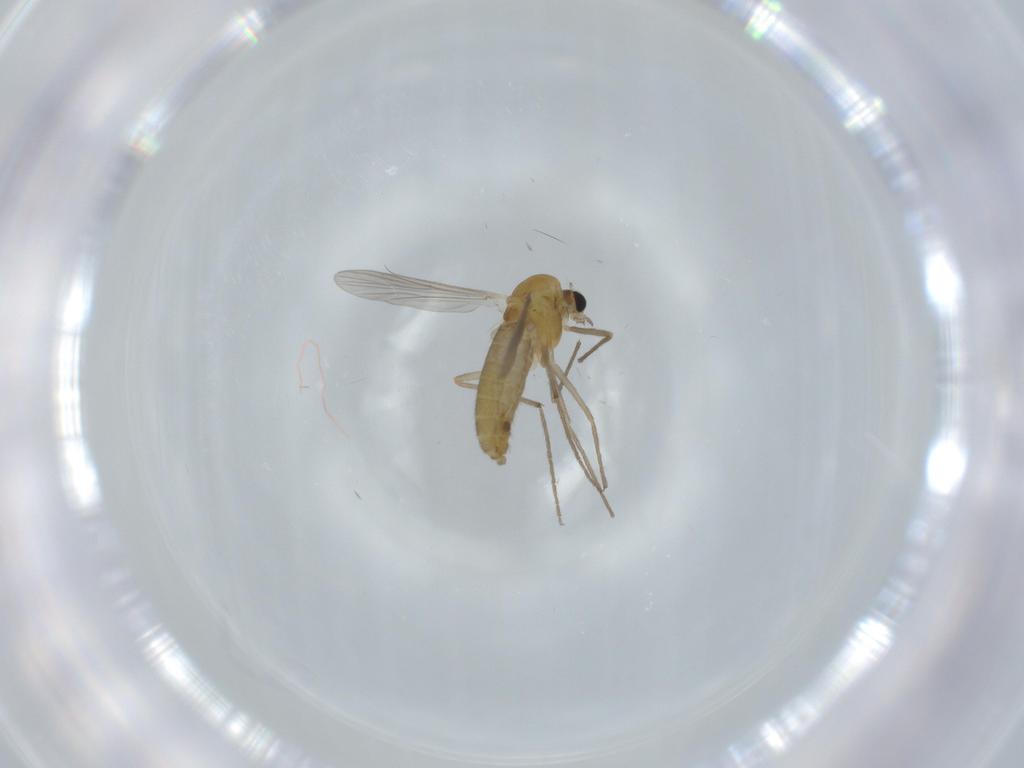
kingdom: Animalia
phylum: Arthropoda
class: Insecta
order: Diptera
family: Chironomidae
